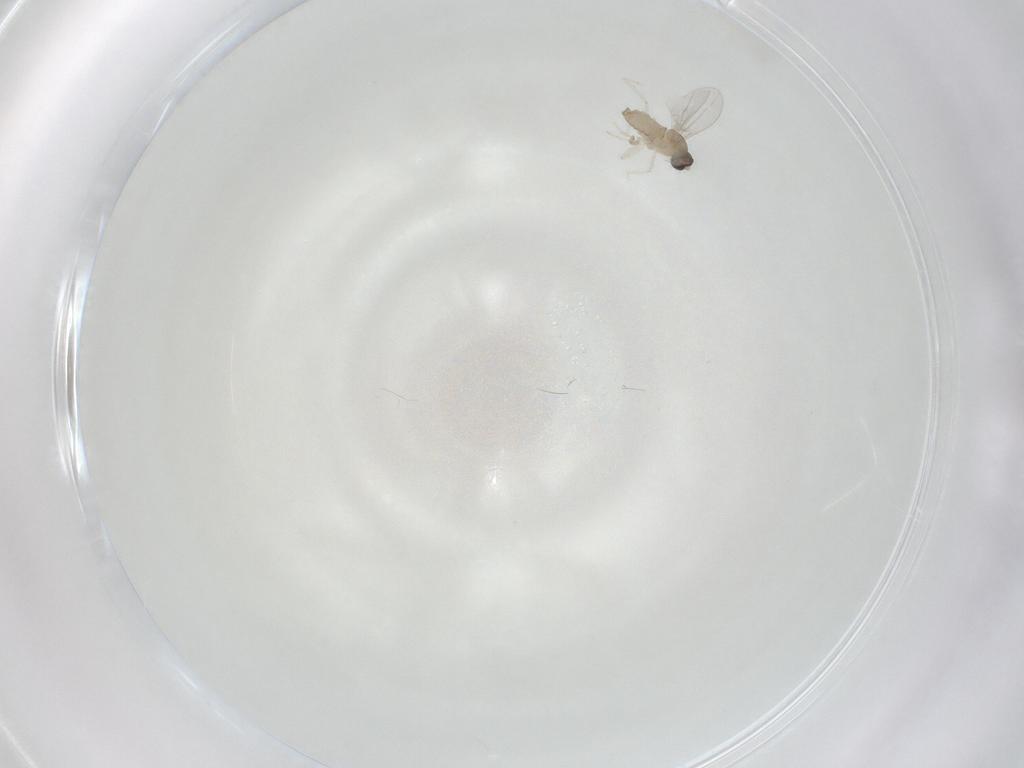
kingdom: Animalia
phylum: Arthropoda
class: Insecta
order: Diptera
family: Cecidomyiidae
